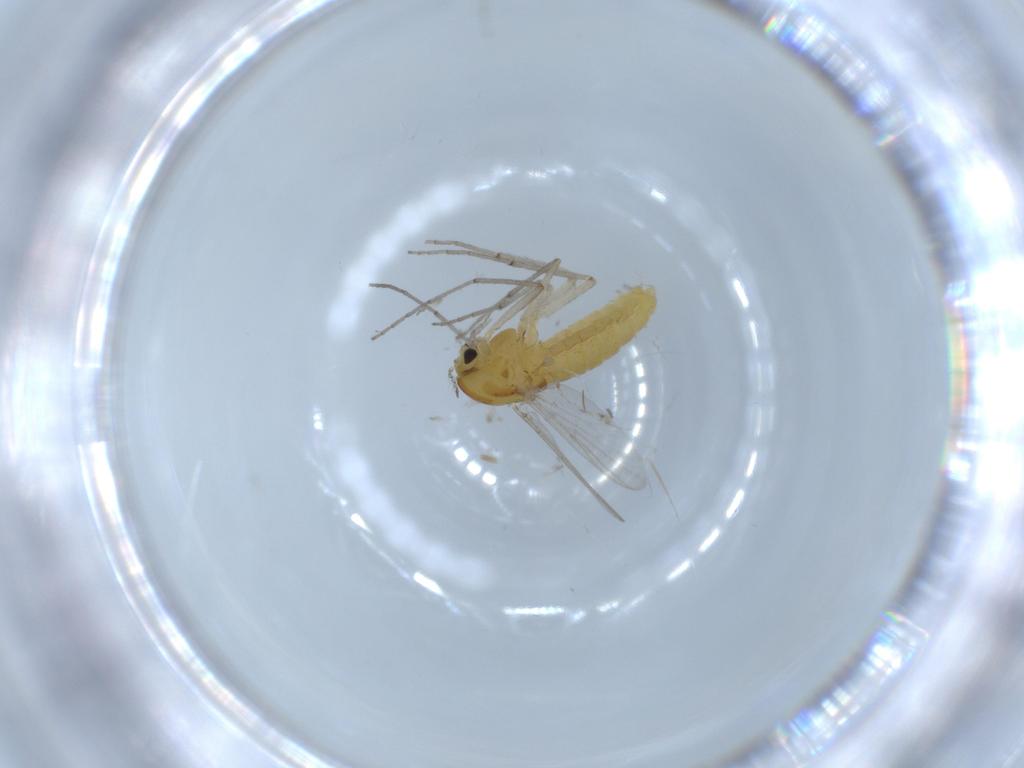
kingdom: Animalia
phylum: Arthropoda
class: Insecta
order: Diptera
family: Chironomidae
